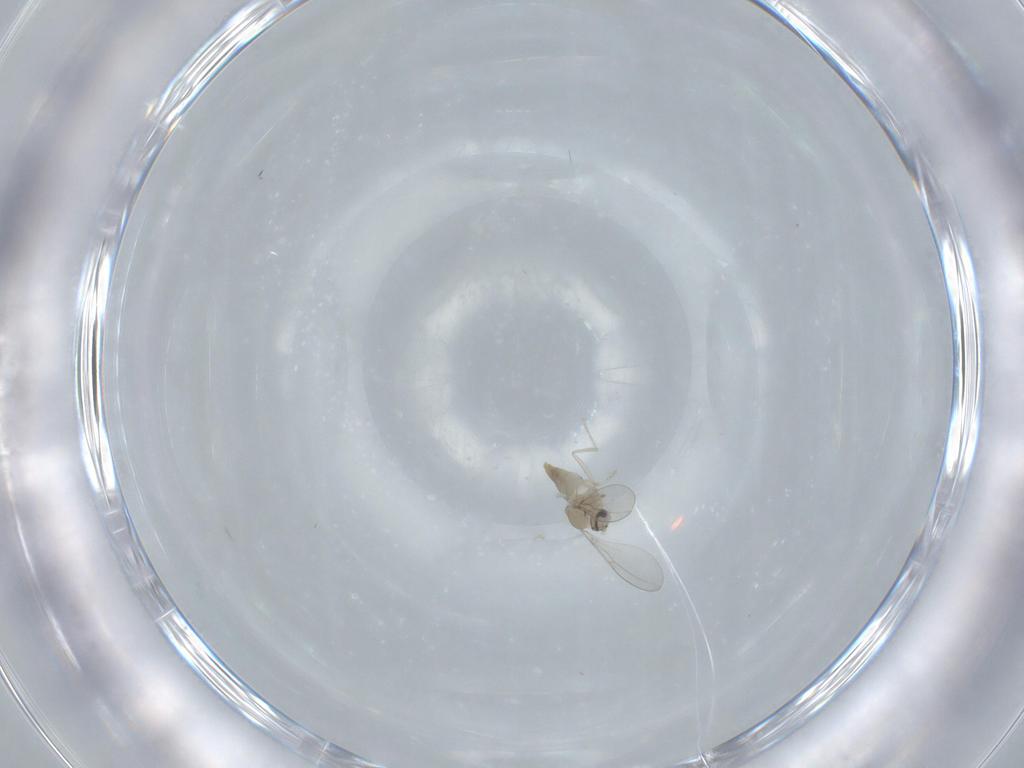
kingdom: Animalia
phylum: Arthropoda
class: Insecta
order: Diptera
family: Cecidomyiidae
